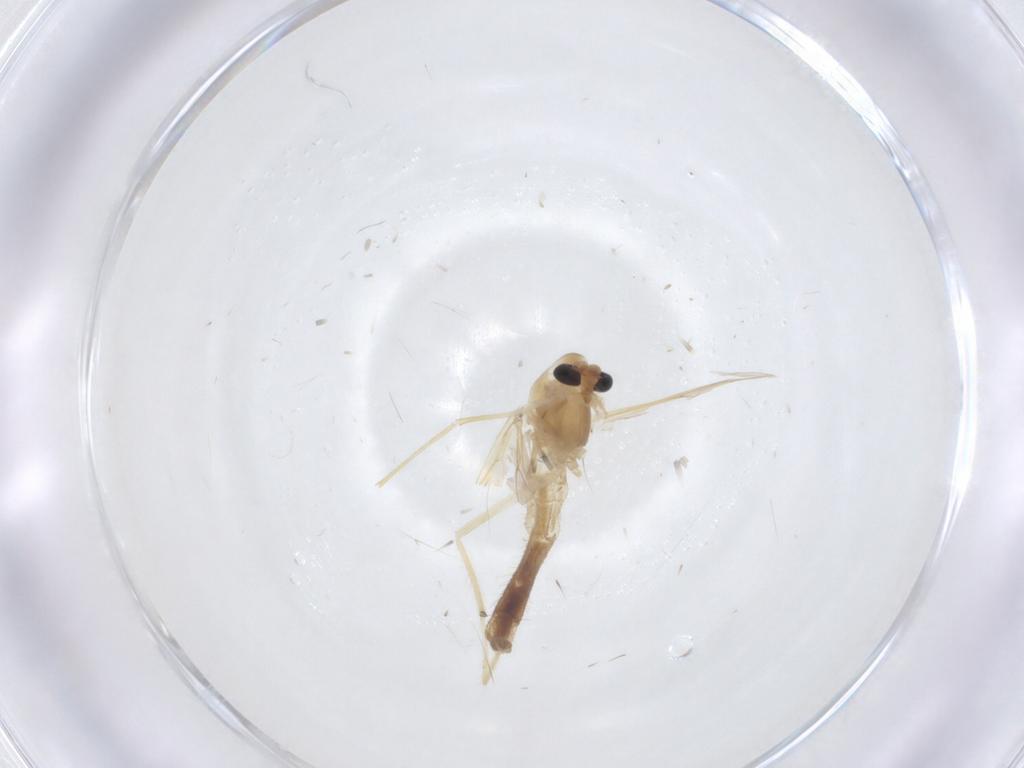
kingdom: Animalia
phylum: Arthropoda
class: Insecta
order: Diptera
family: Chironomidae
